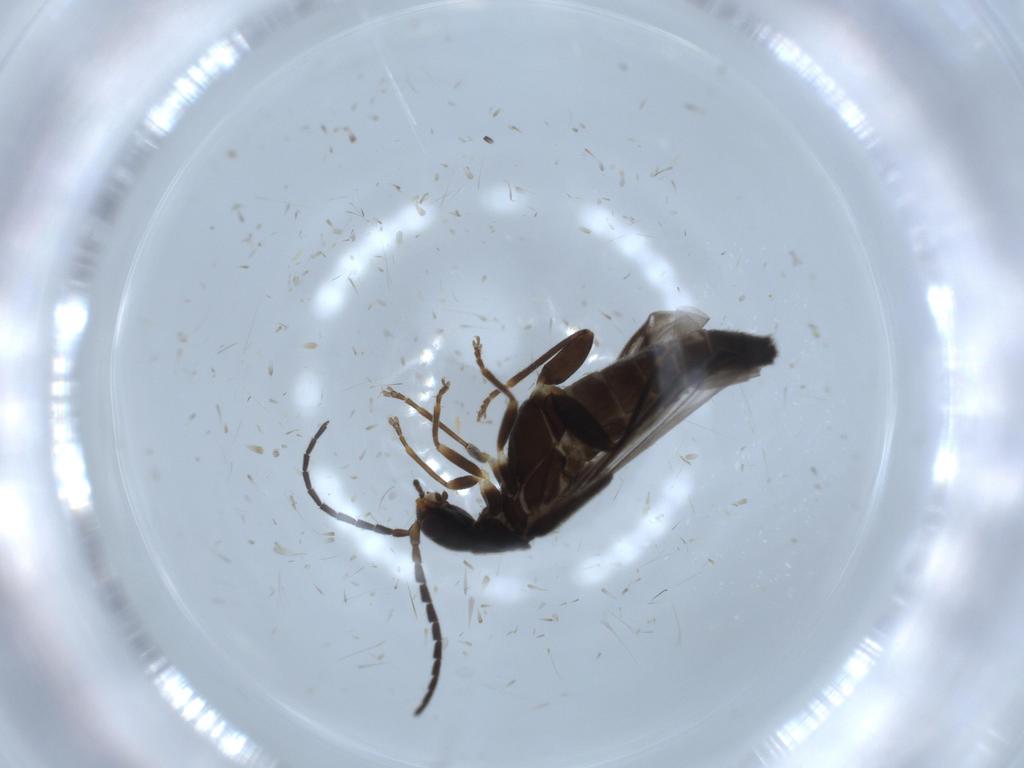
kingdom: Animalia
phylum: Arthropoda
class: Insecta
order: Coleoptera
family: Cantharidae
